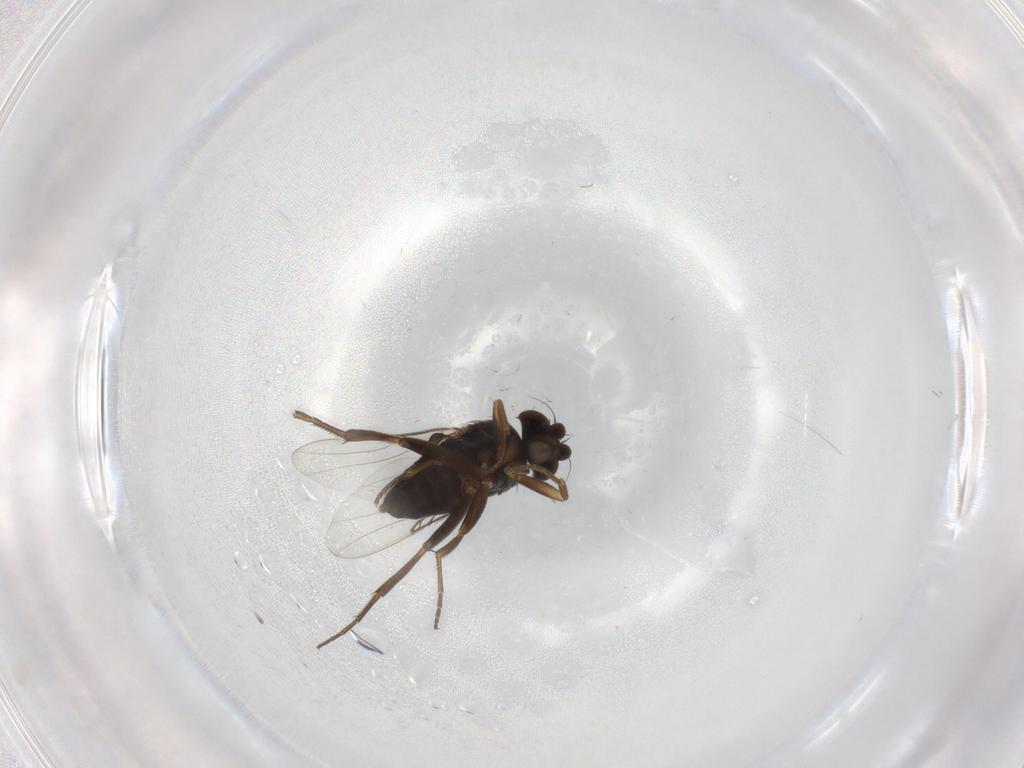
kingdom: Animalia
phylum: Arthropoda
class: Insecta
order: Diptera
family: Phoridae
